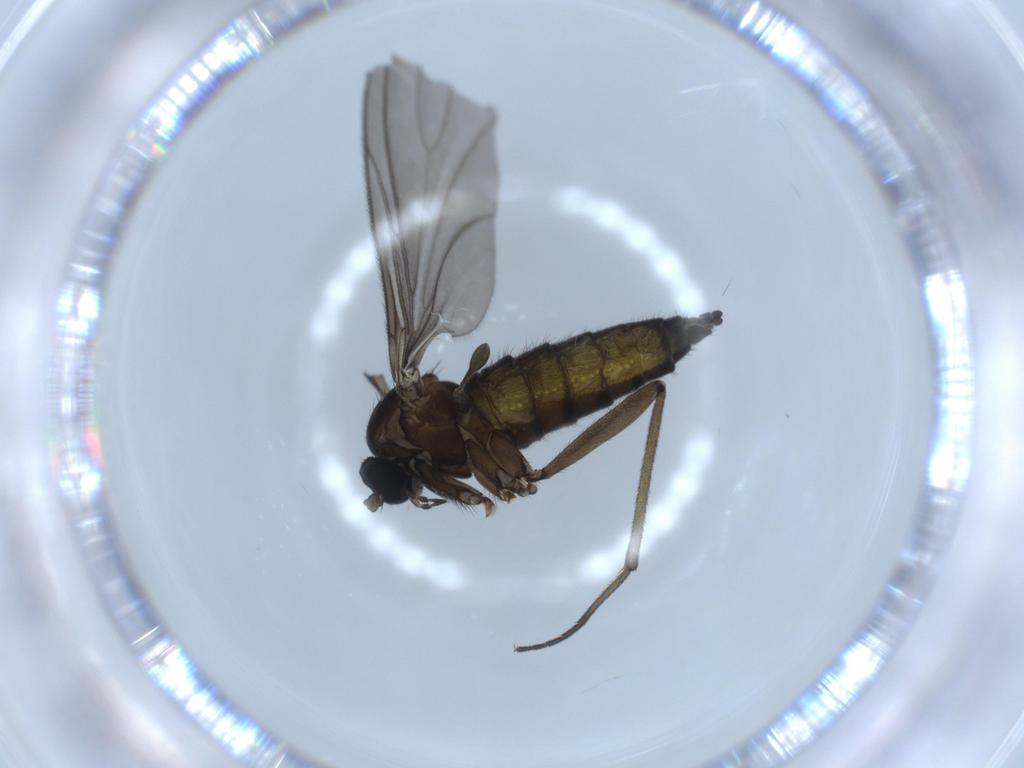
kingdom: Animalia
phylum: Arthropoda
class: Insecta
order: Diptera
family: Sciaridae
